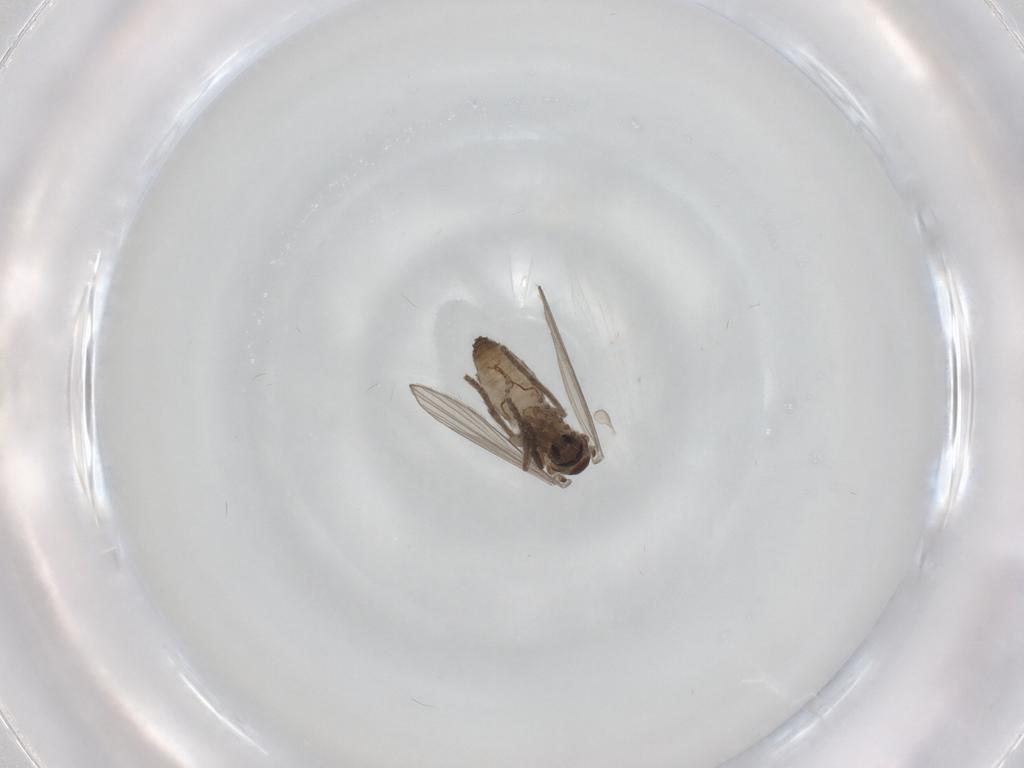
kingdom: Animalia
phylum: Arthropoda
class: Insecta
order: Diptera
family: Psychodidae
